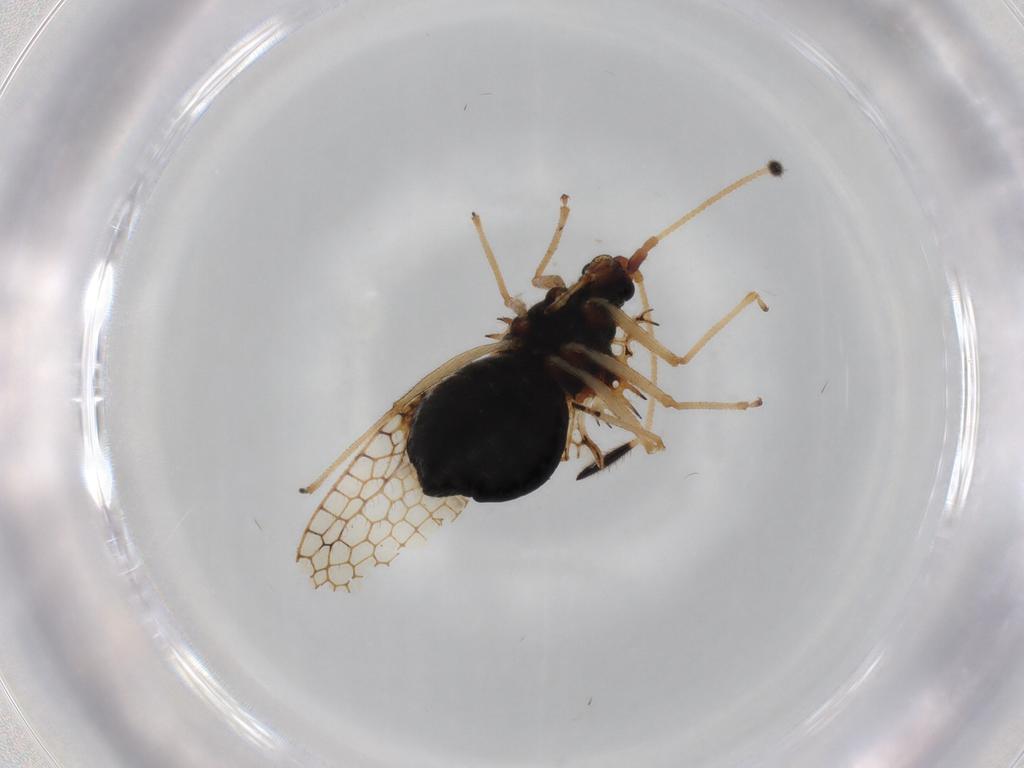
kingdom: Animalia
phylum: Arthropoda
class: Insecta
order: Hemiptera
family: Tingidae
